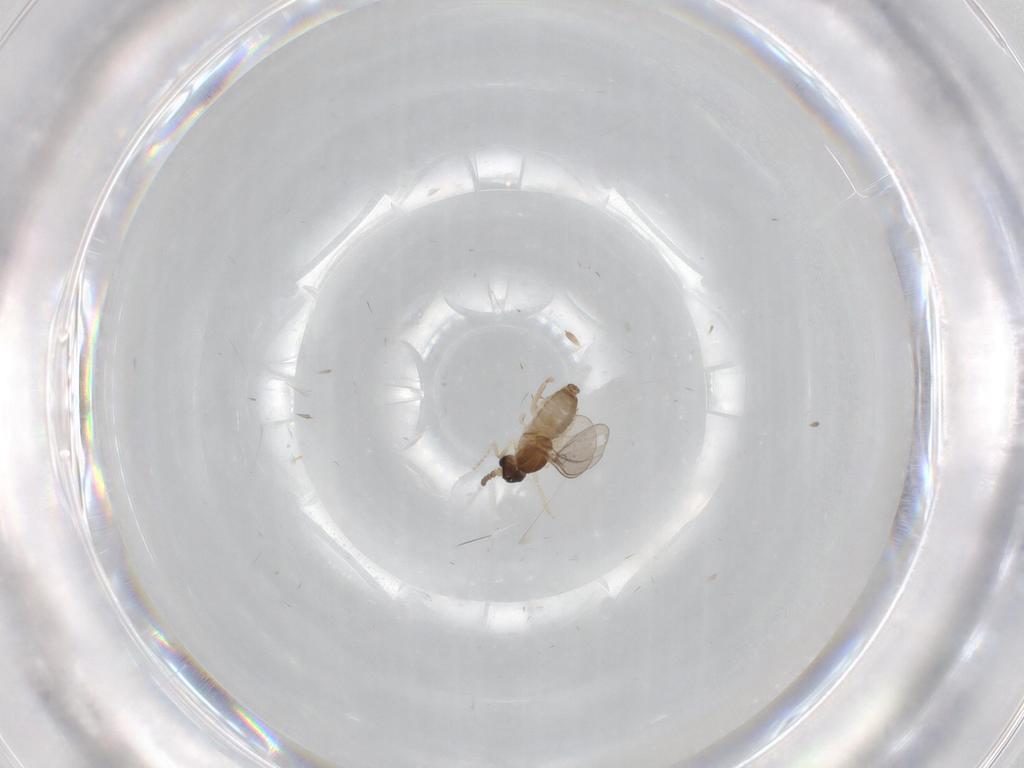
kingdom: Animalia
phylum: Arthropoda
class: Insecta
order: Diptera
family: Cecidomyiidae
